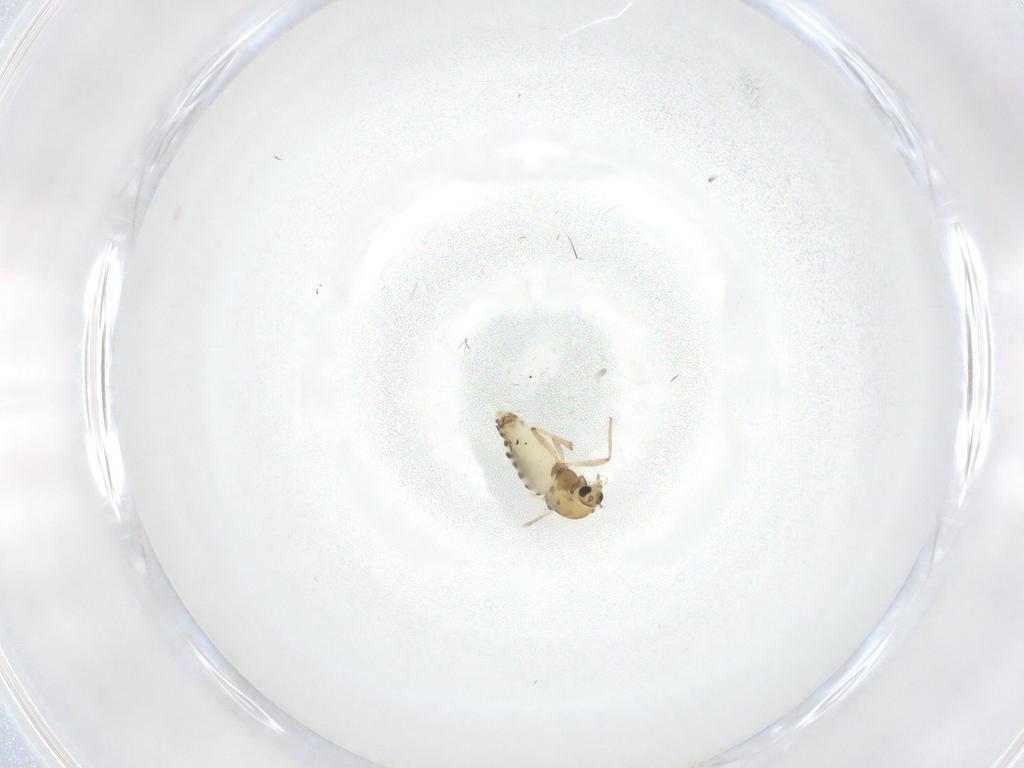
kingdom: Animalia
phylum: Arthropoda
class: Insecta
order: Diptera
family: Chironomidae
